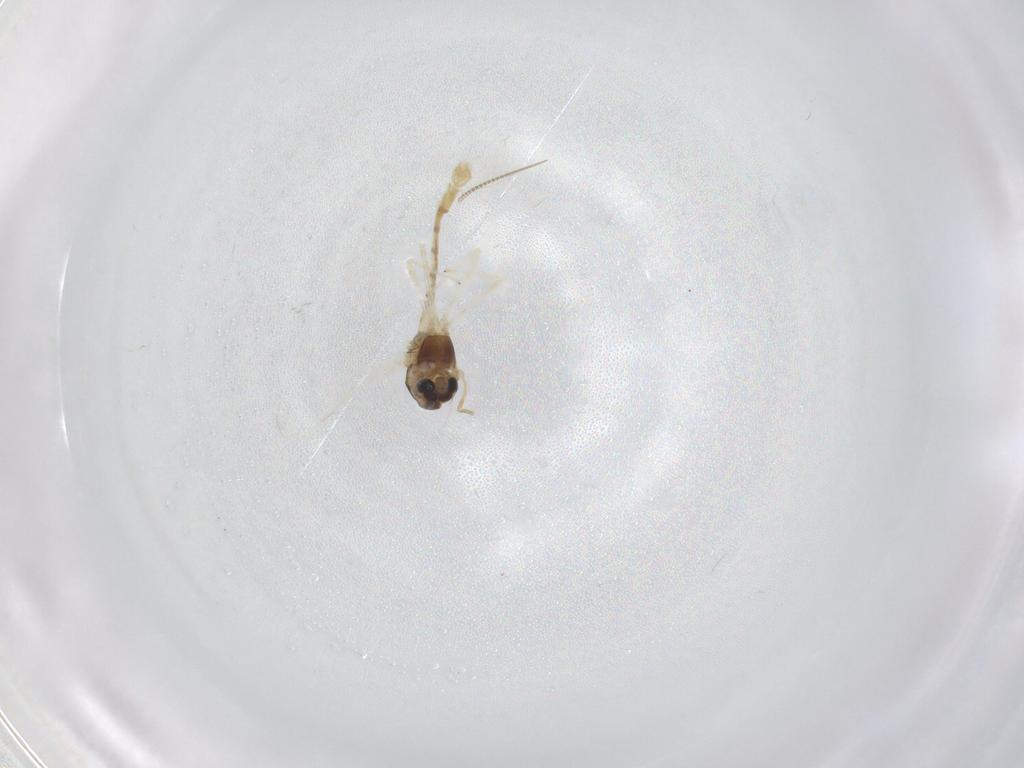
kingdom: Animalia
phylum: Arthropoda
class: Insecta
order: Diptera
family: Chironomidae
